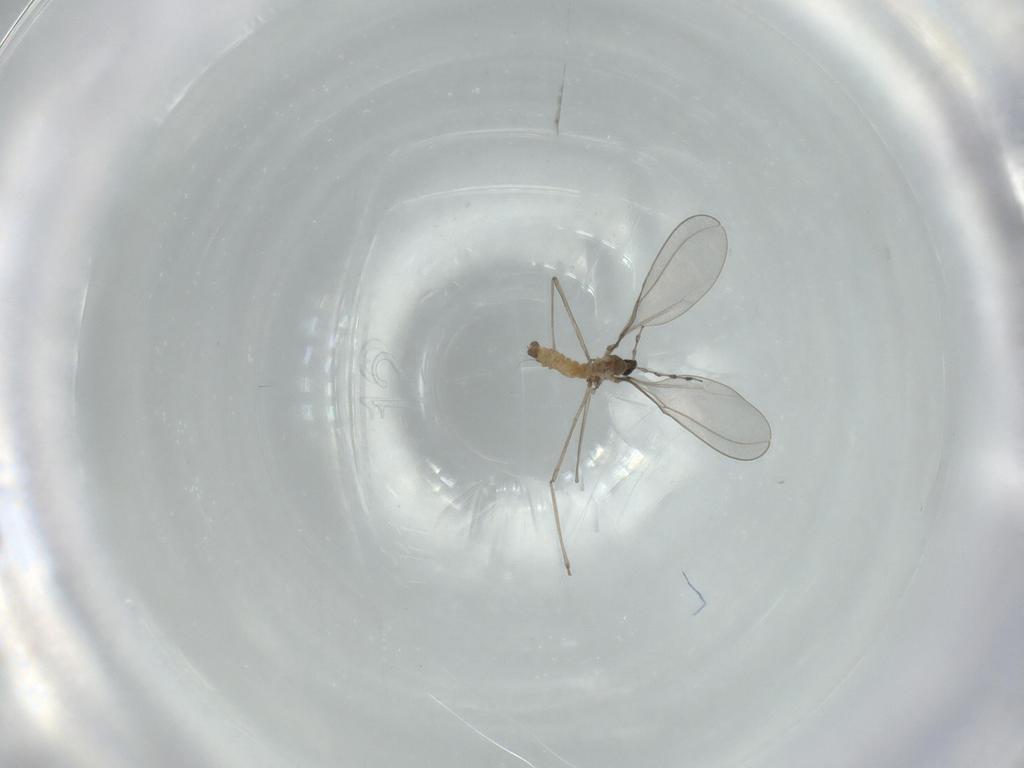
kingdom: Animalia
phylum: Arthropoda
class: Insecta
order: Diptera
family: Cecidomyiidae
